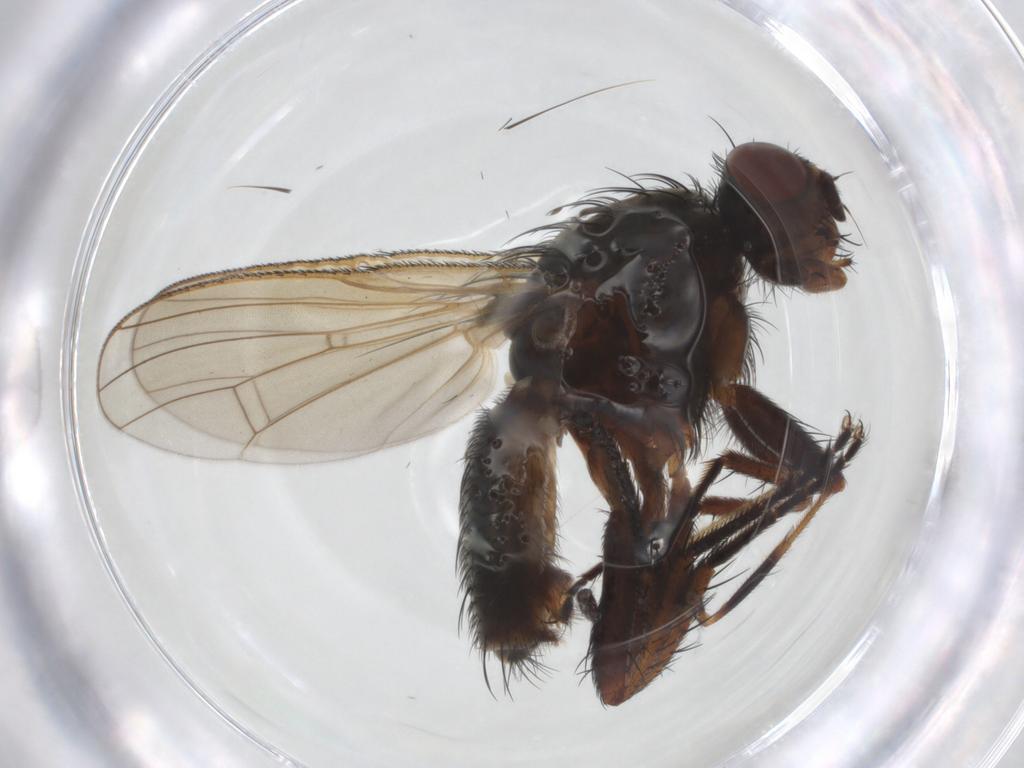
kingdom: Animalia
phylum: Arthropoda
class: Insecta
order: Diptera
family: Anthomyiidae
